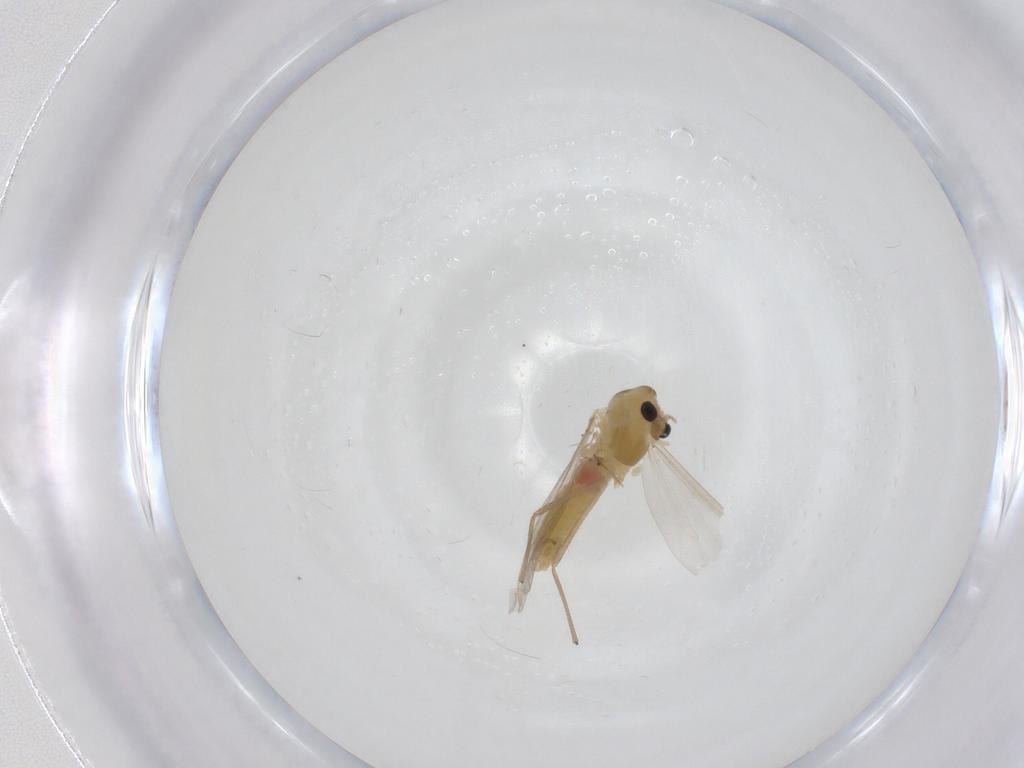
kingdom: Animalia
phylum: Arthropoda
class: Insecta
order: Diptera
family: Chironomidae
